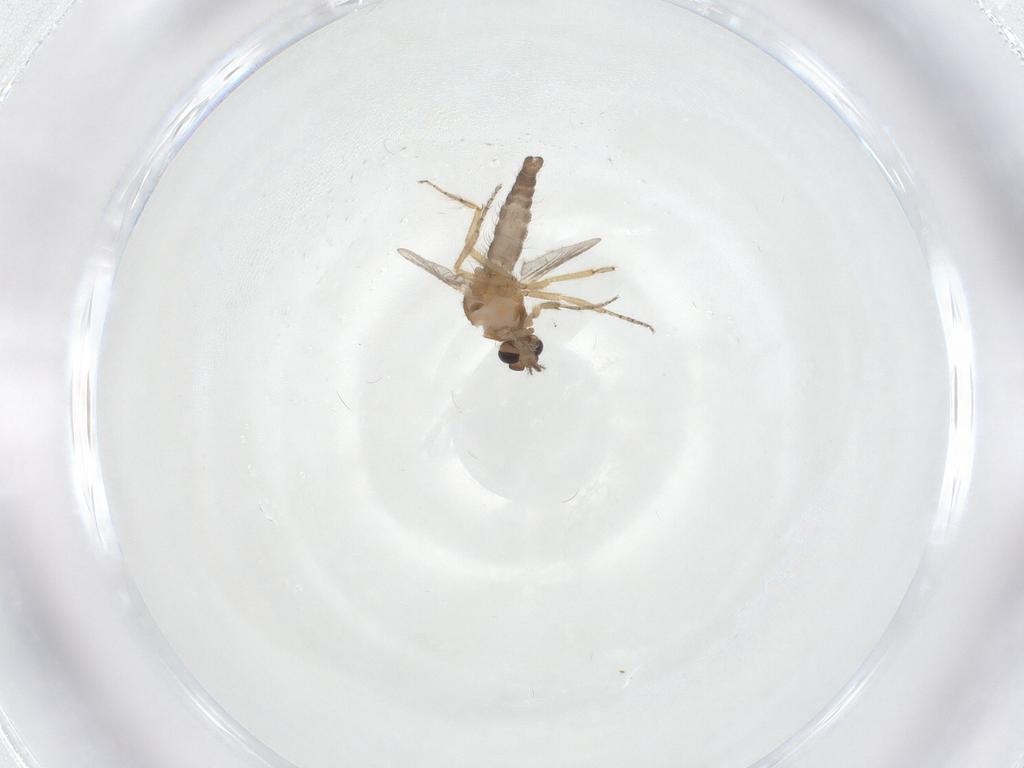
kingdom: Animalia
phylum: Arthropoda
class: Insecta
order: Diptera
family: Ceratopogonidae
